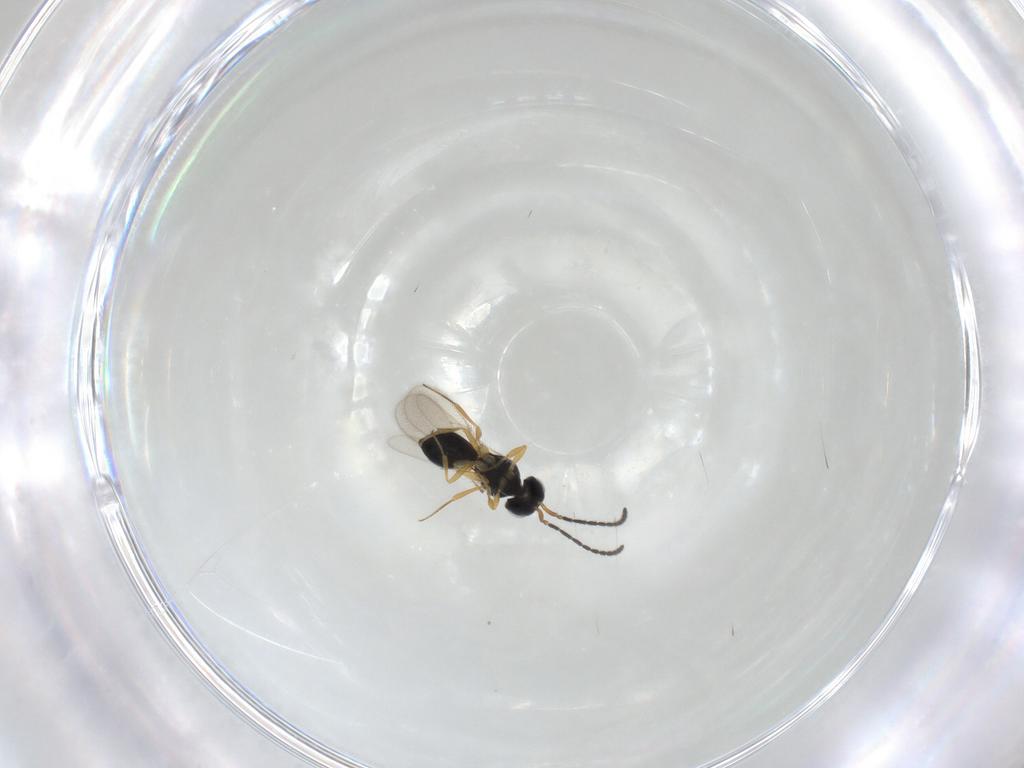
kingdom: Animalia
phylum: Arthropoda
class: Insecta
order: Hymenoptera
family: Scelionidae
